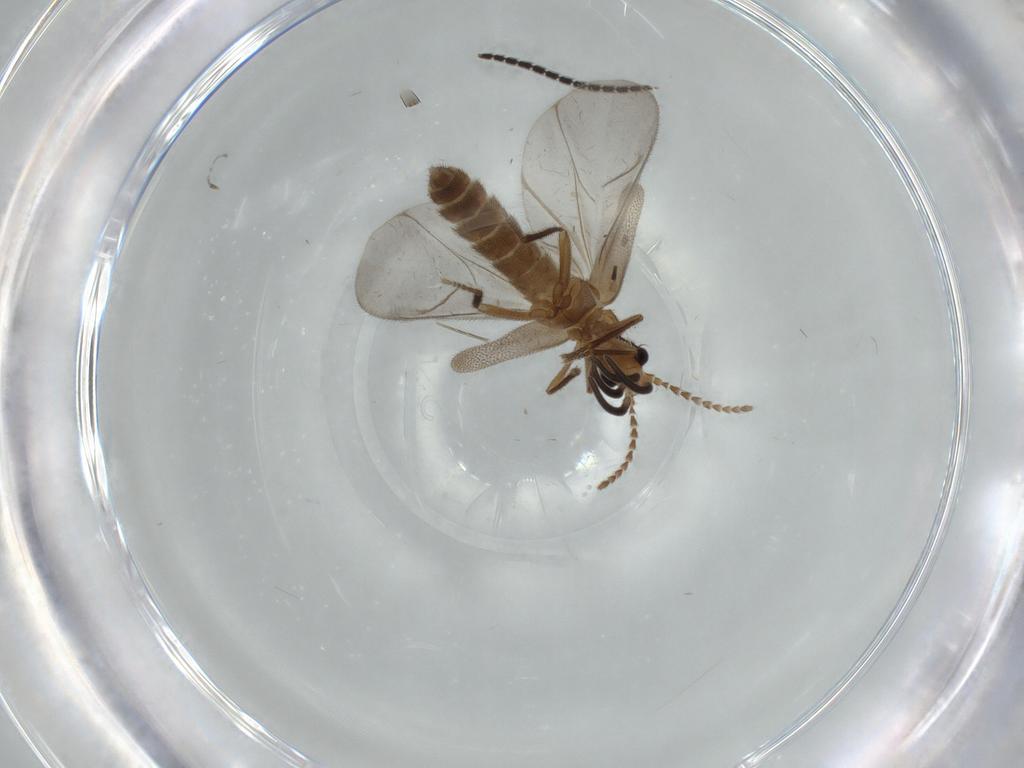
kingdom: Animalia
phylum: Arthropoda
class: Insecta
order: Coleoptera
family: Omethidae
